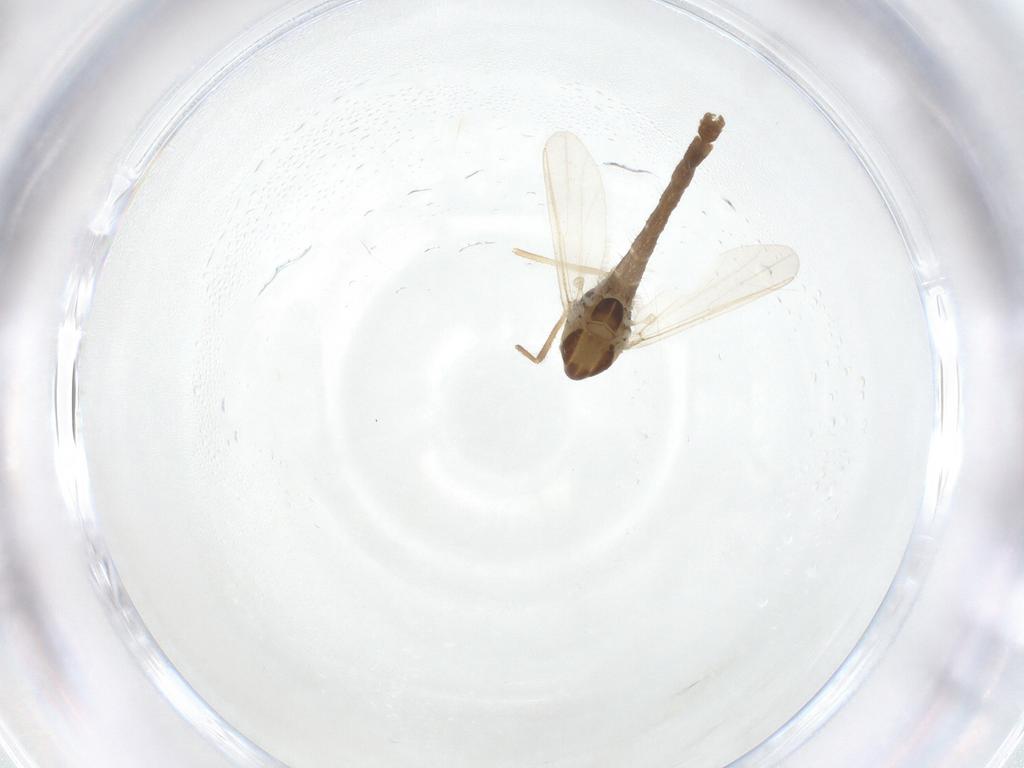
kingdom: Animalia
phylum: Arthropoda
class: Insecta
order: Diptera
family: Chironomidae
